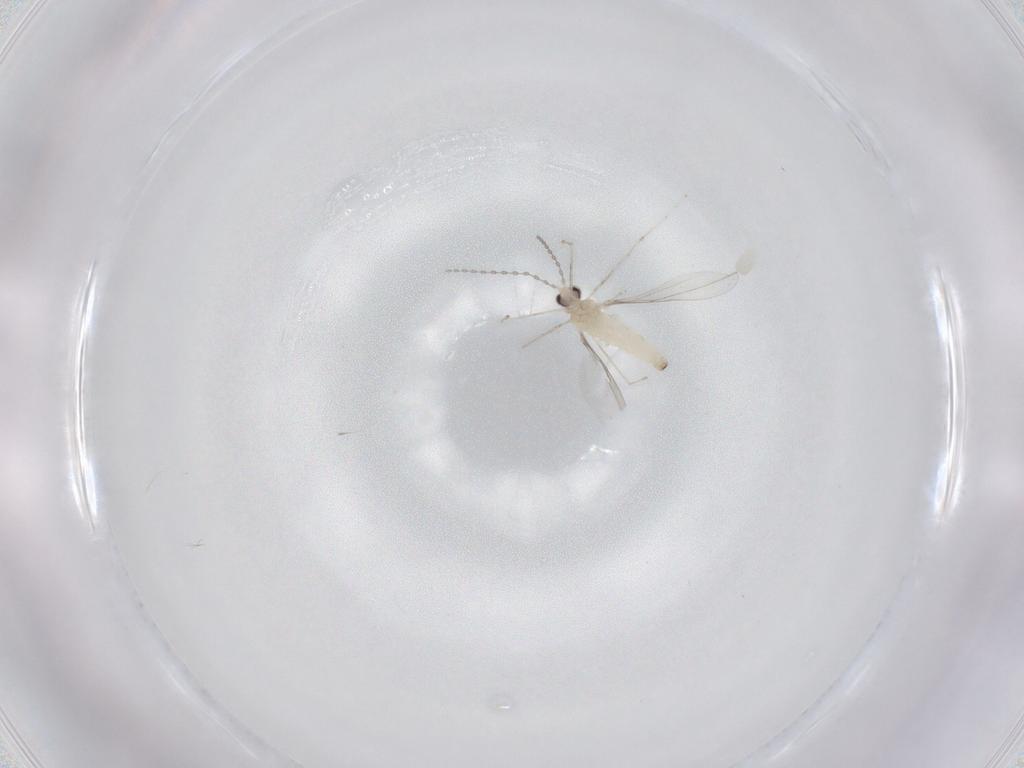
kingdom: Animalia
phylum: Arthropoda
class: Insecta
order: Diptera
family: Cecidomyiidae
